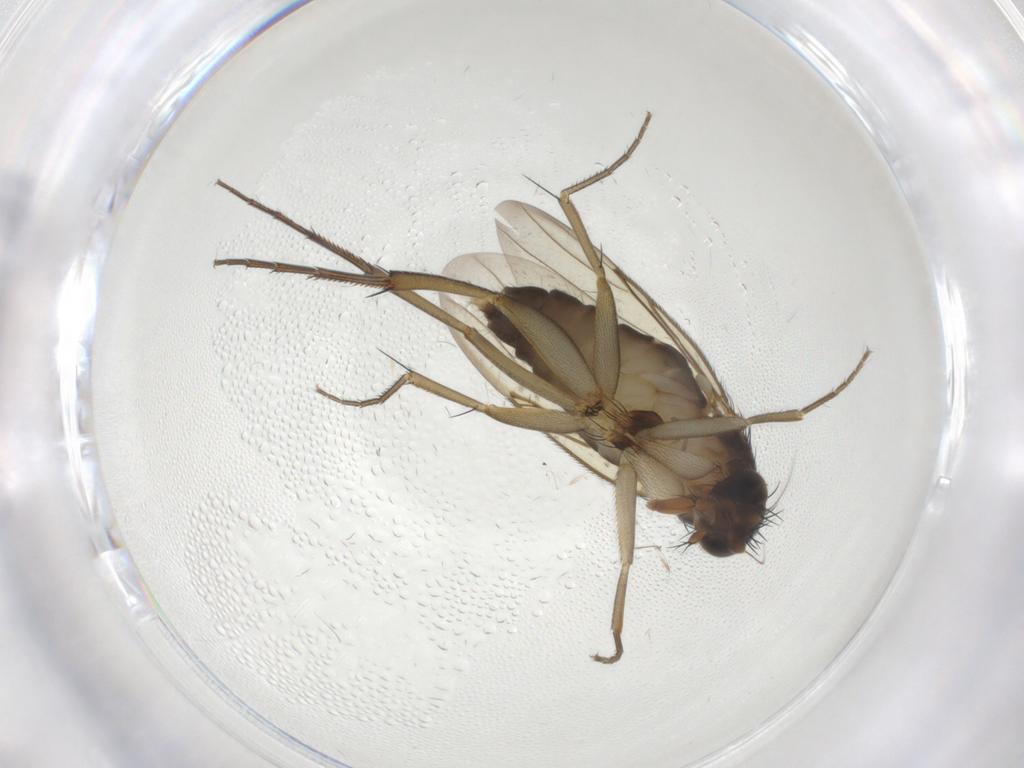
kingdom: Animalia
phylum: Arthropoda
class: Insecta
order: Diptera
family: Phoridae
